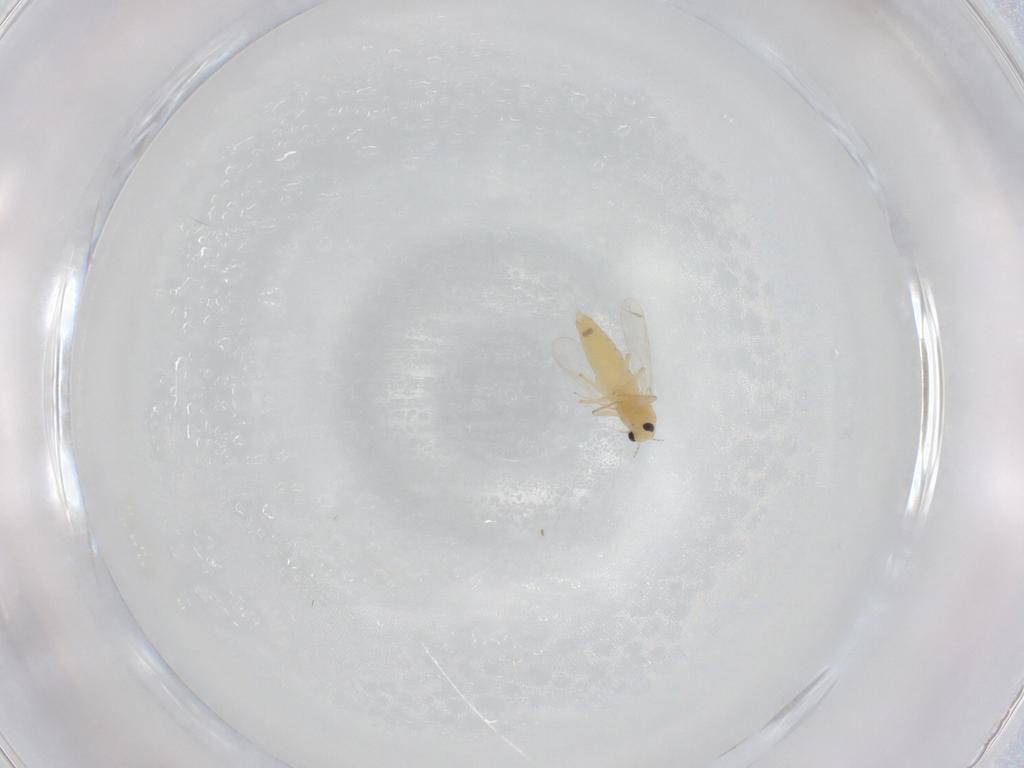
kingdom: Animalia
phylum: Arthropoda
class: Insecta
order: Diptera
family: Chironomidae
